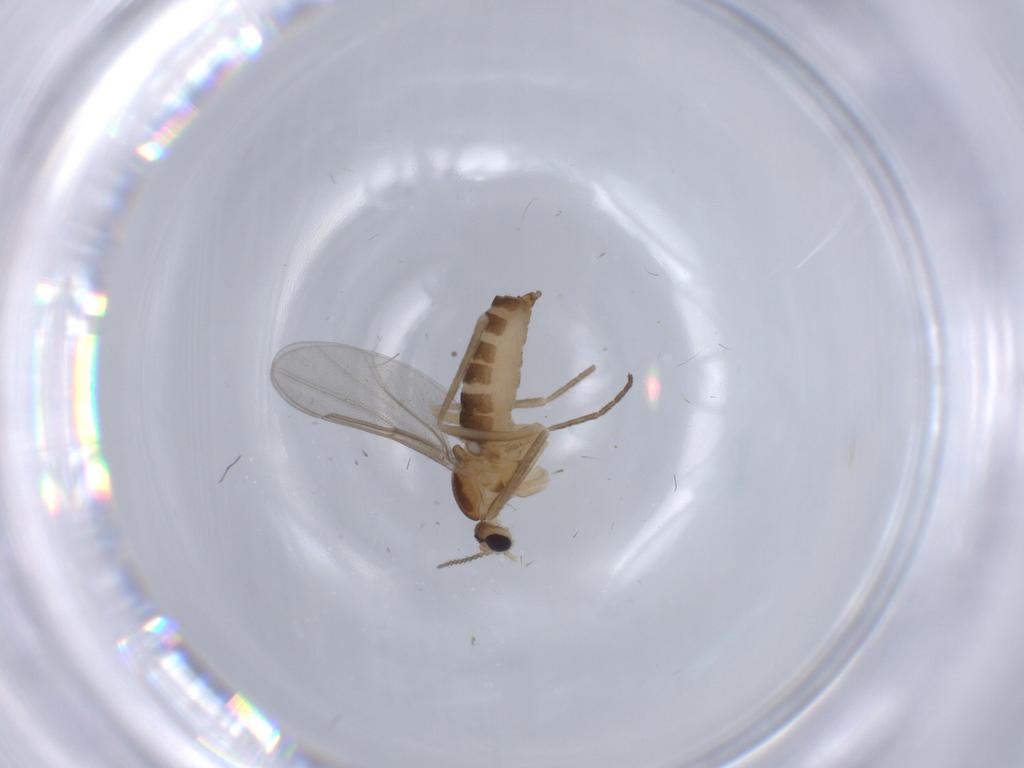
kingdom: Animalia
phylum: Arthropoda
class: Insecta
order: Diptera
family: Cecidomyiidae
